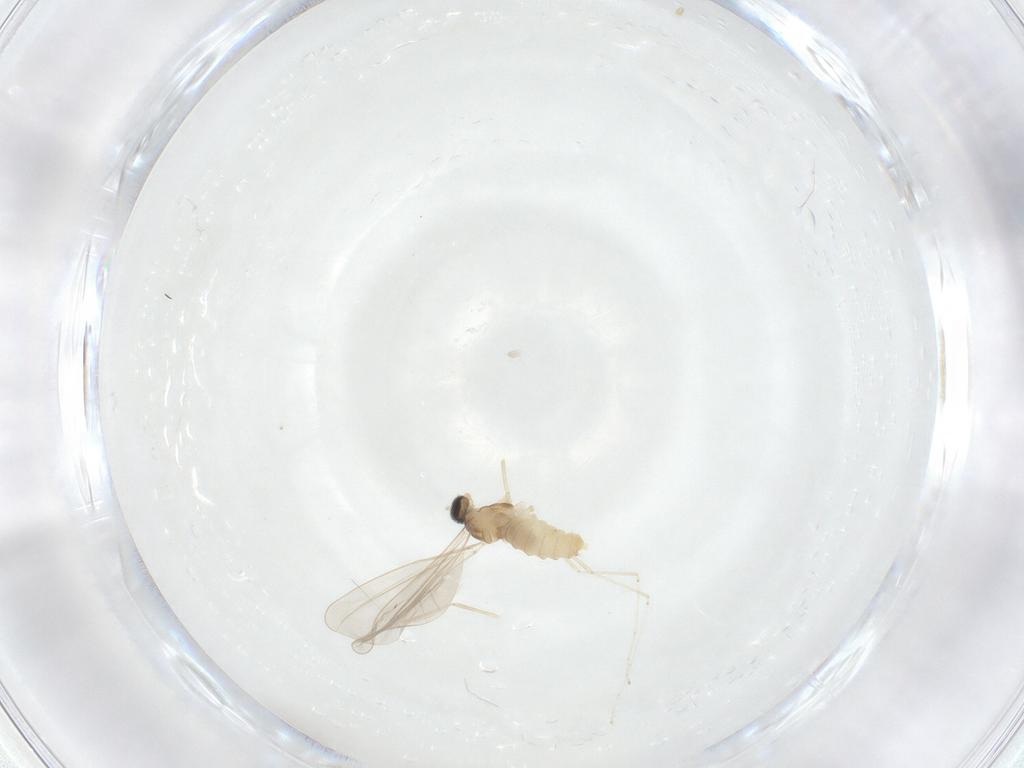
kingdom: Animalia
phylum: Arthropoda
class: Insecta
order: Diptera
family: Cecidomyiidae
